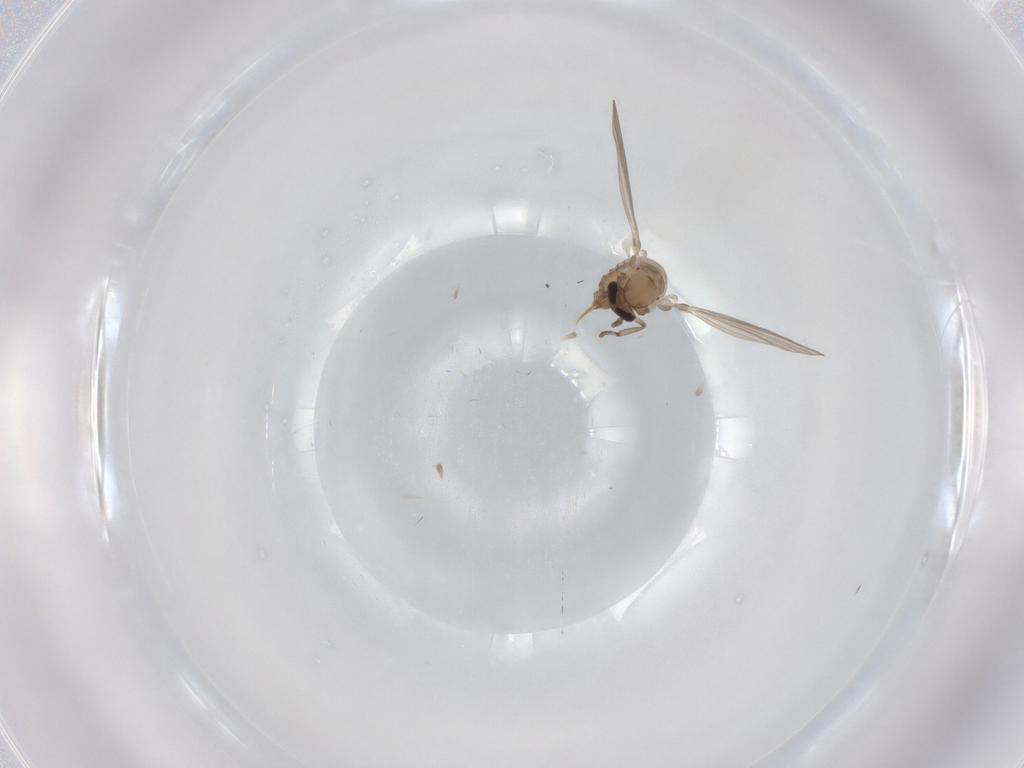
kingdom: Animalia
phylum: Arthropoda
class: Insecta
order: Diptera
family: Psychodidae
